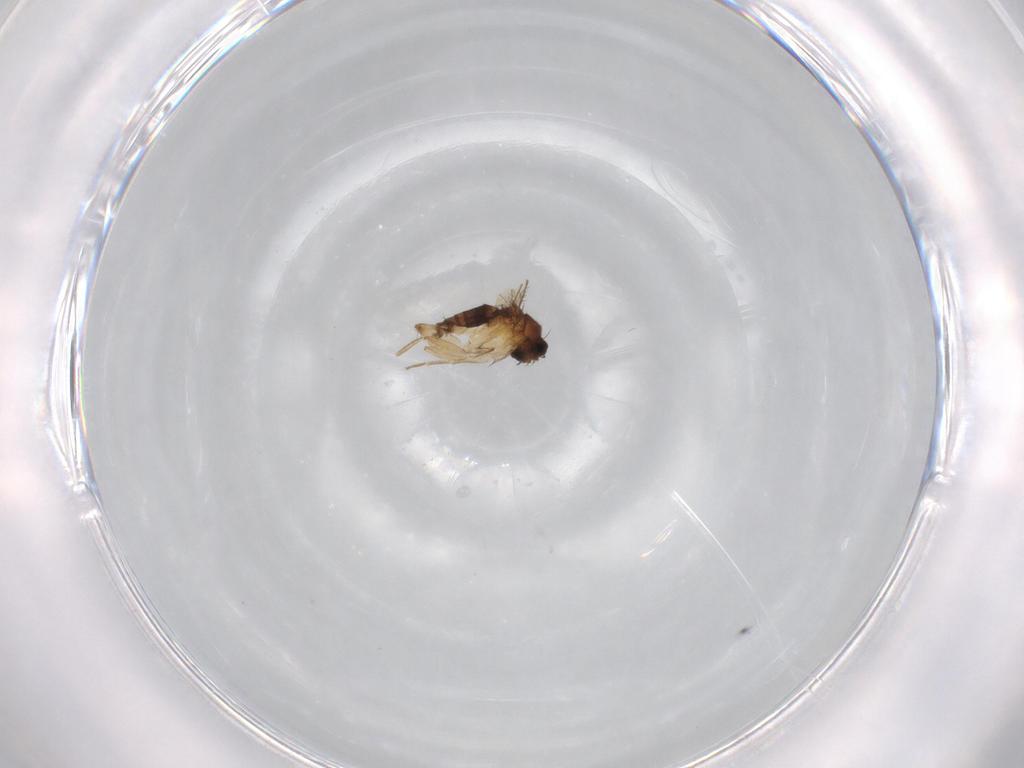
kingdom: Animalia
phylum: Arthropoda
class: Insecta
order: Diptera
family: Phoridae
